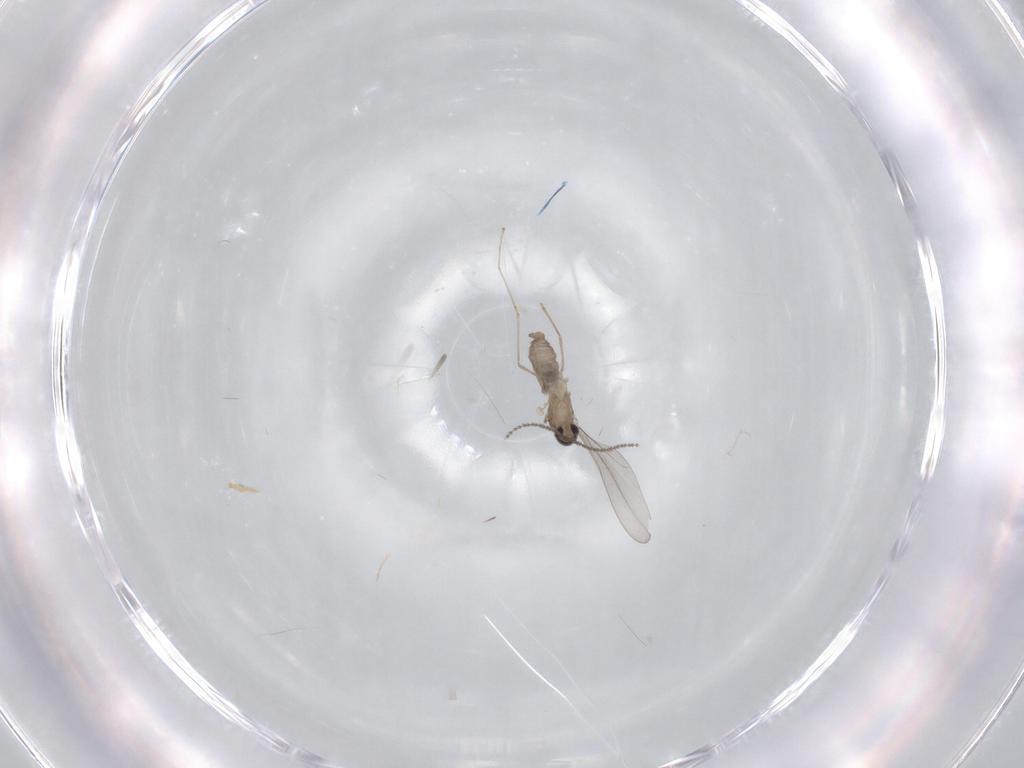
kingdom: Animalia
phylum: Arthropoda
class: Insecta
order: Diptera
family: Cecidomyiidae
